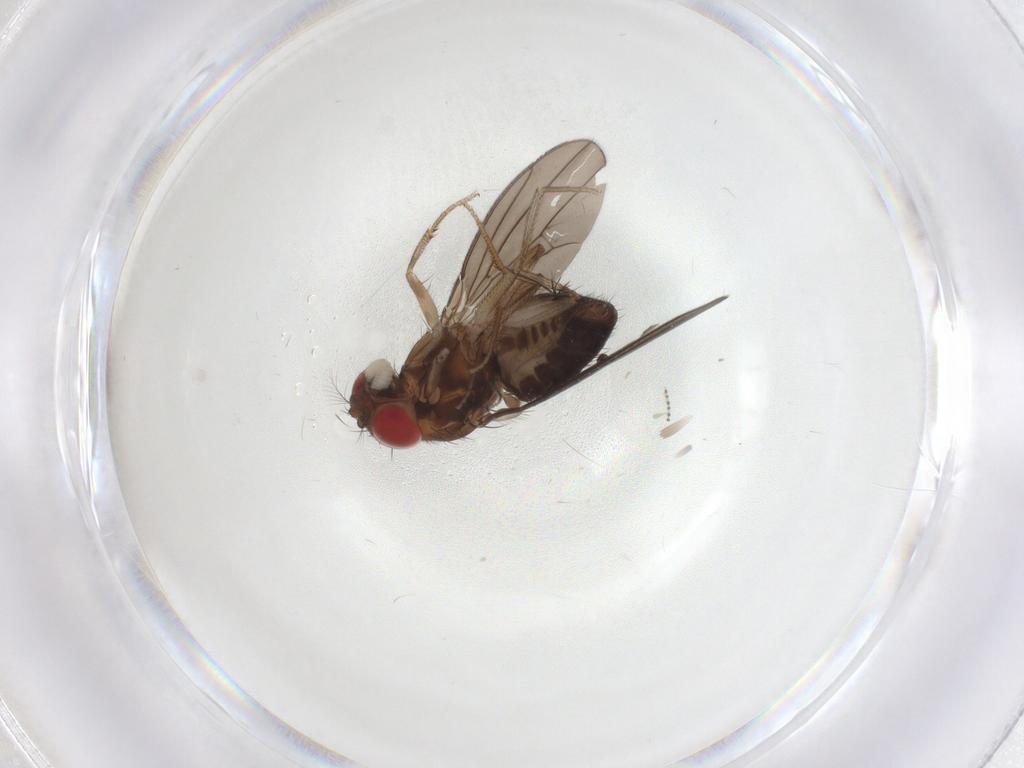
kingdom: Animalia
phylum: Arthropoda
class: Insecta
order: Diptera
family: Drosophilidae
